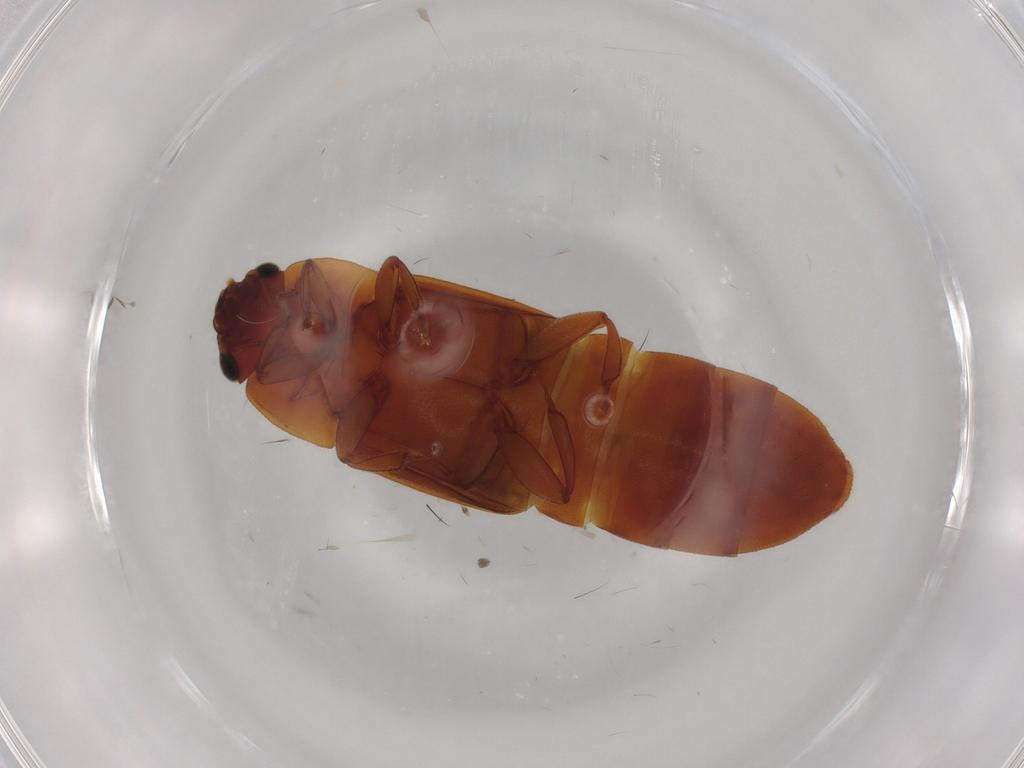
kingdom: Animalia
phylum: Arthropoda
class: Insecta
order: Coleoptera
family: Nitidulidae
